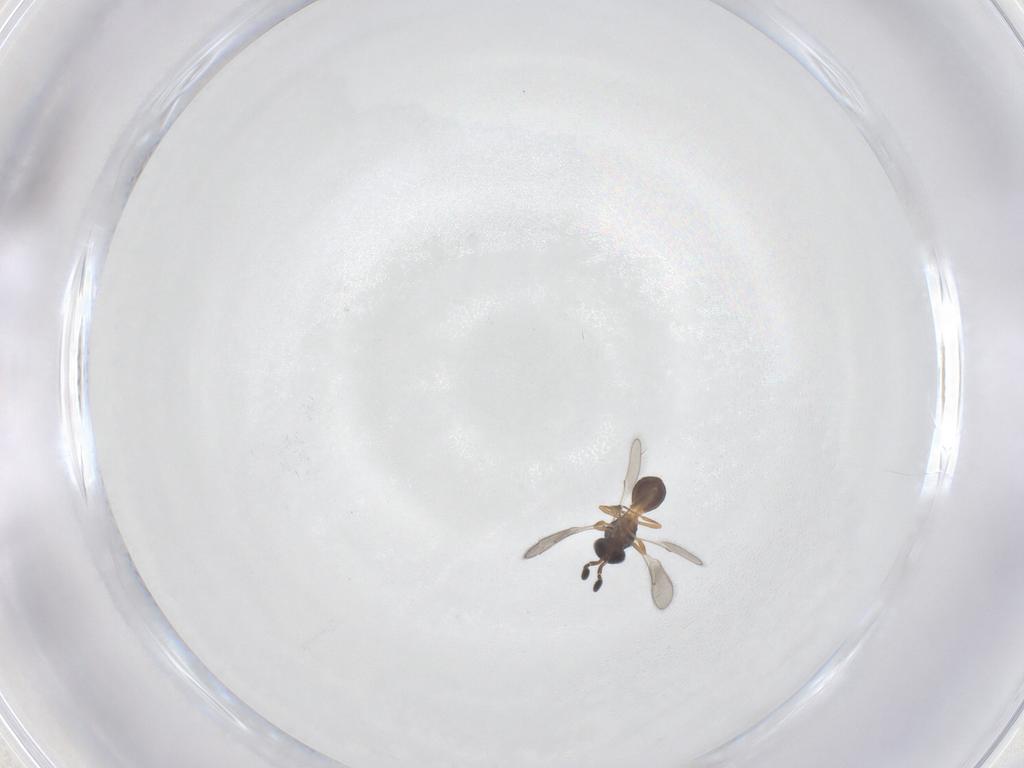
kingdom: Animalia
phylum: Arthropoda
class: Insecta
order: Hymenoptera
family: Scelionidae
